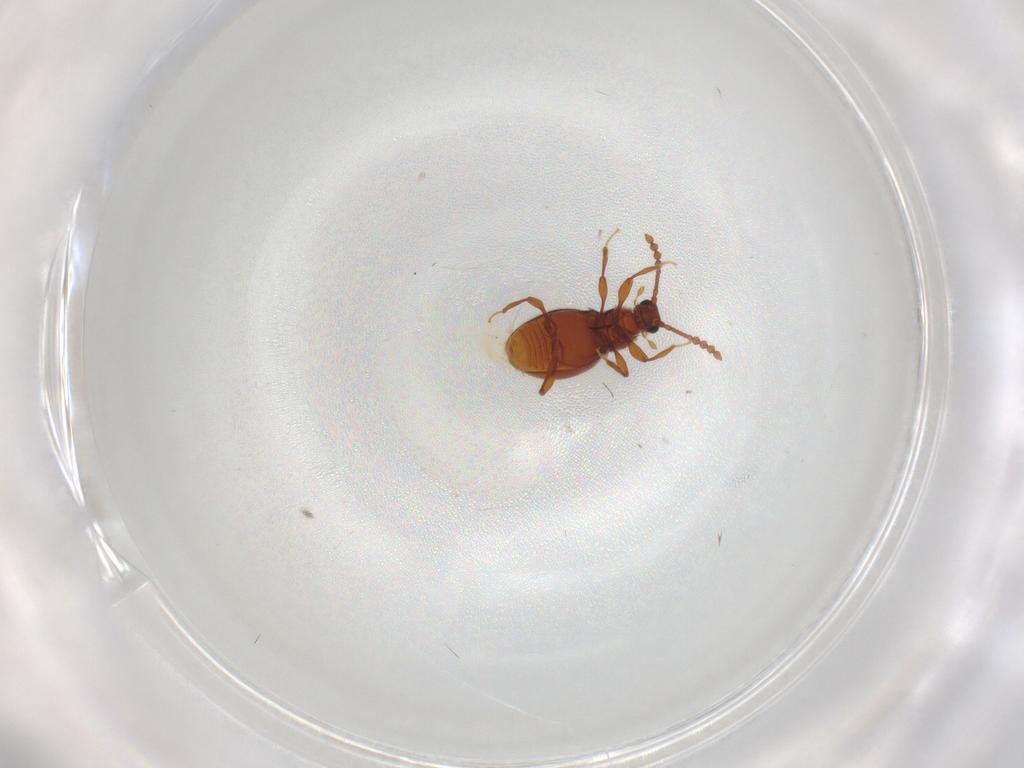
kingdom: Animalia
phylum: Arthropoda
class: Insecta
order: Coleoptera
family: Staphylinidae
